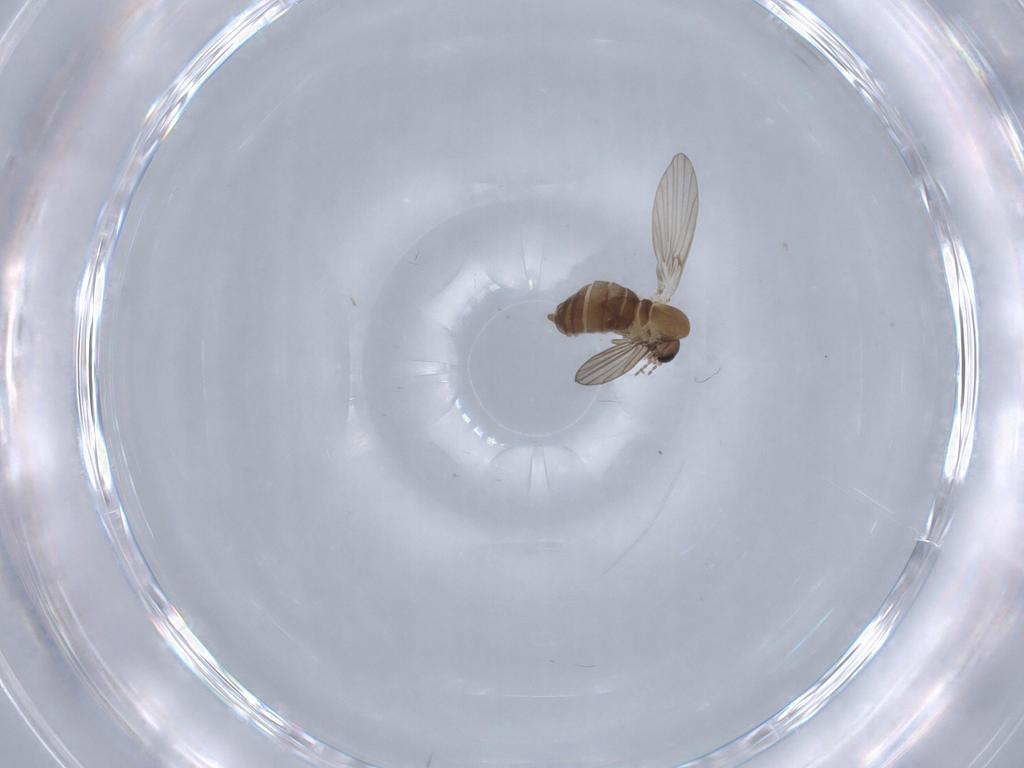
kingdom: Animalia
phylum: Arthropoda
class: Insecta
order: Diptera
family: Psychodidae
